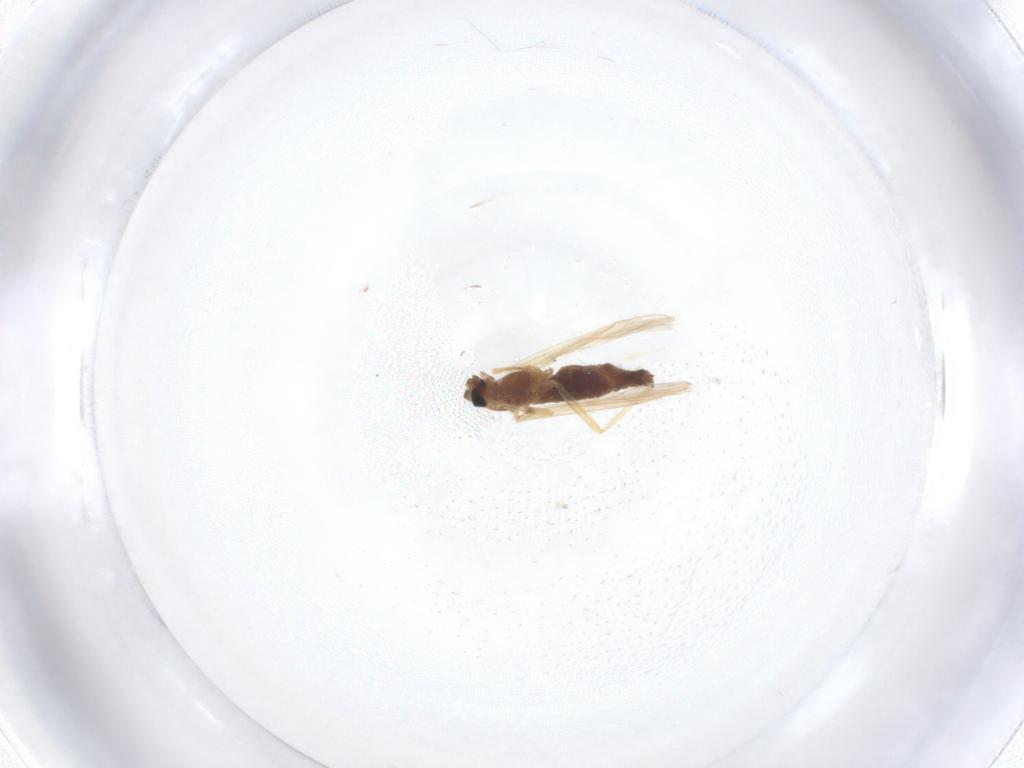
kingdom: Animalia
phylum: Arthropoda
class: Insecta
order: Diptera
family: Chironomidae
